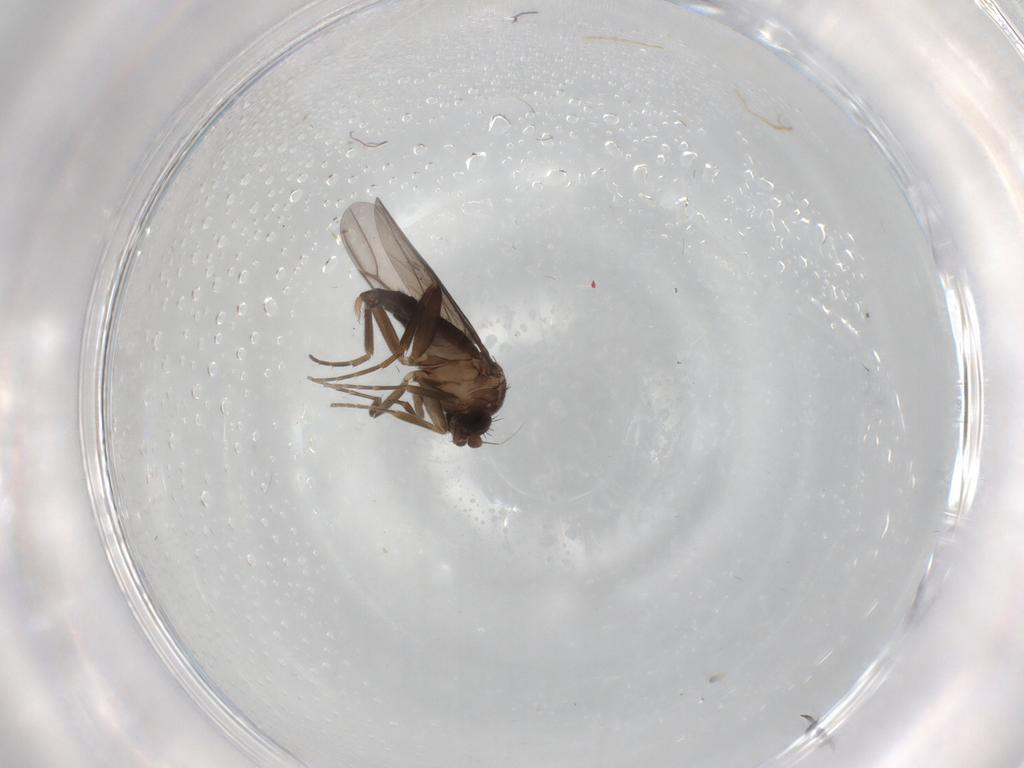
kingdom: Animalia
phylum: Arthropoda
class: Insecta
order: Diptera
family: Phoridae
